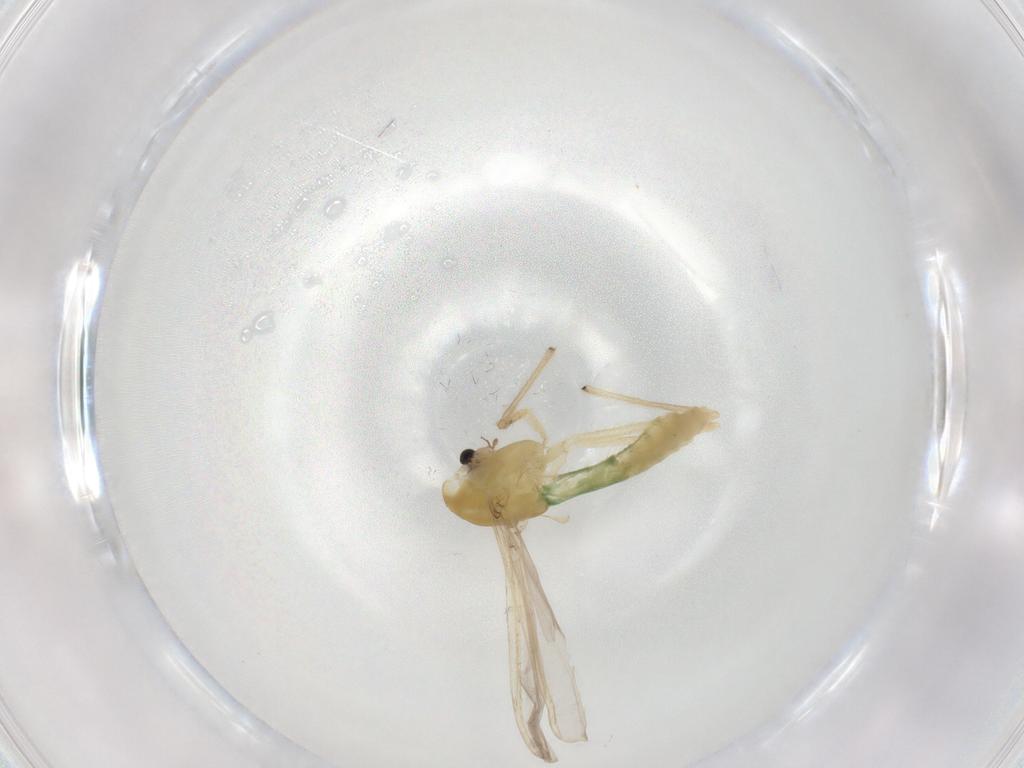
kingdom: Animalia
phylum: Arthropoda
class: Insecta
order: Diptera
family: Chironomidae
